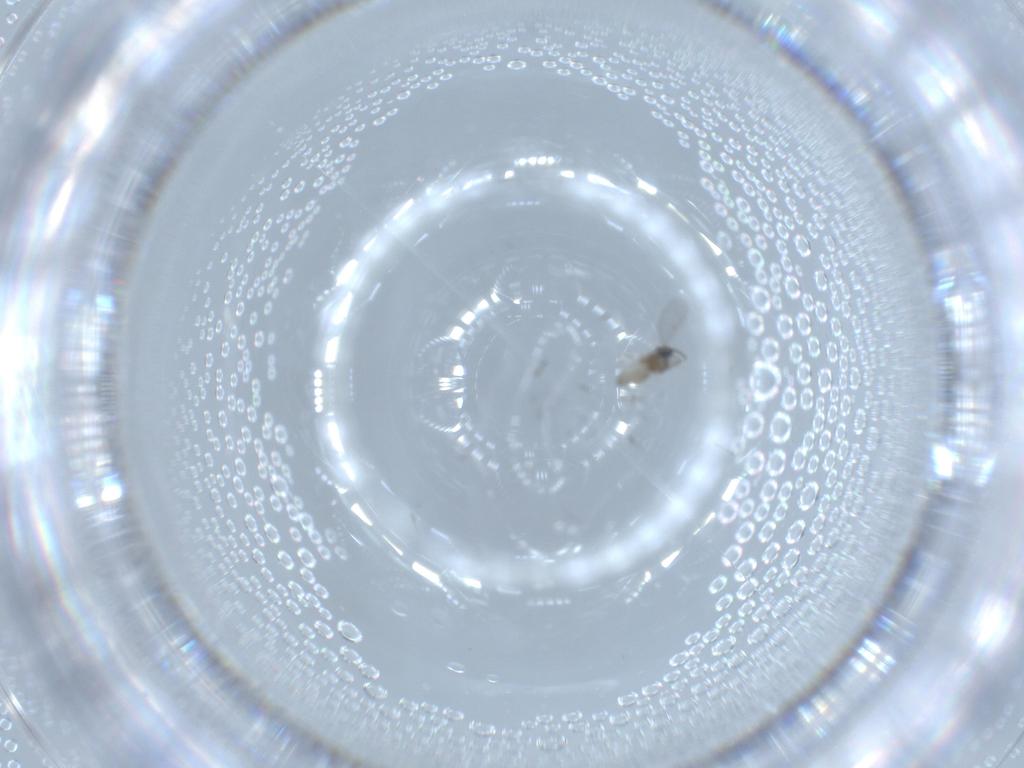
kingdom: Animalia
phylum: Arthropoda
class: Insecta
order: Diptera
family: Cecidomyiidae
